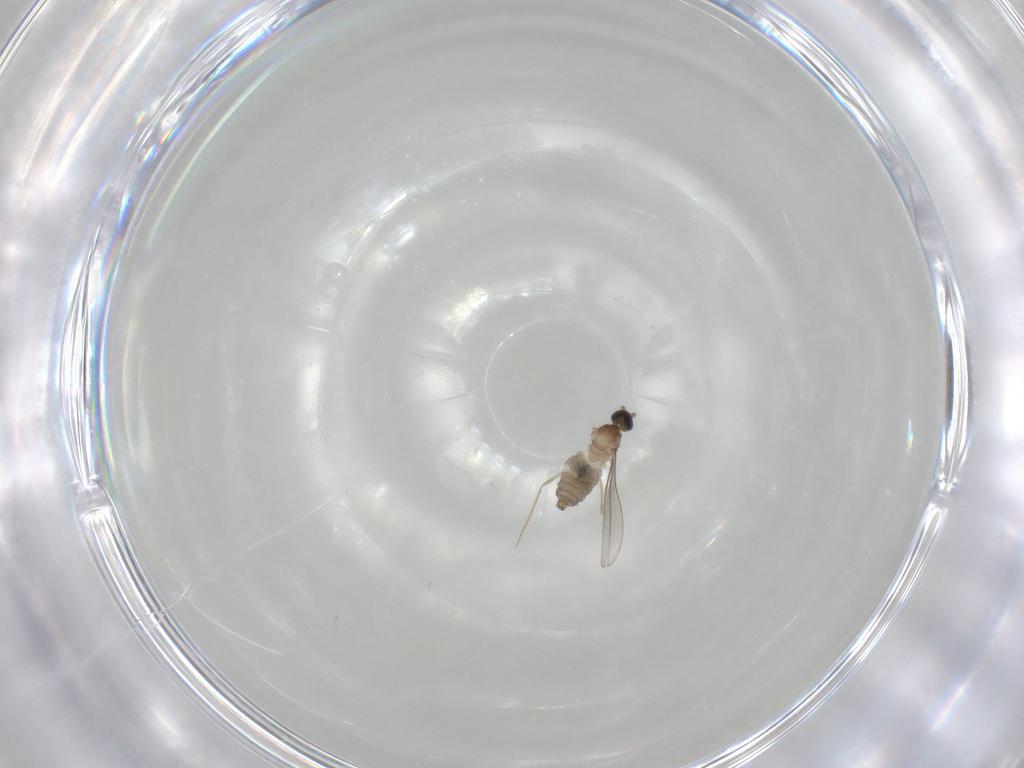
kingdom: Animalia
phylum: Arthropoda
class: Insecta
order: Diptera
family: Cecidomyiidae
